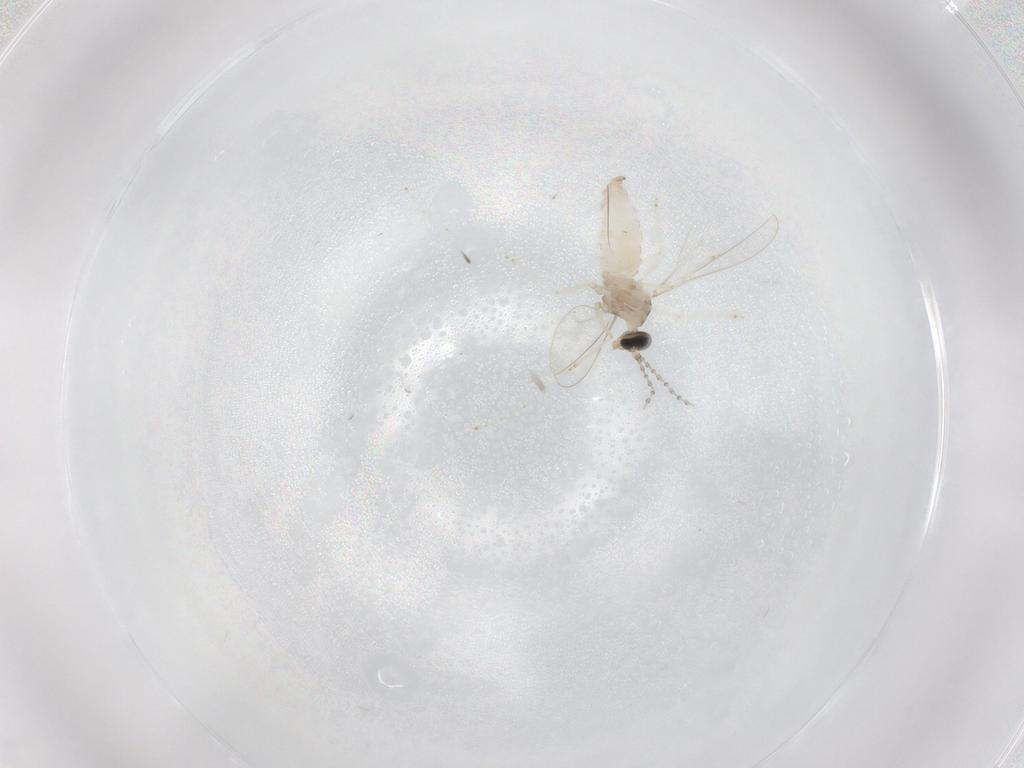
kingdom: Animalia
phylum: Arthropoda
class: Insecta
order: Diptera
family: Cecidomyiidae
